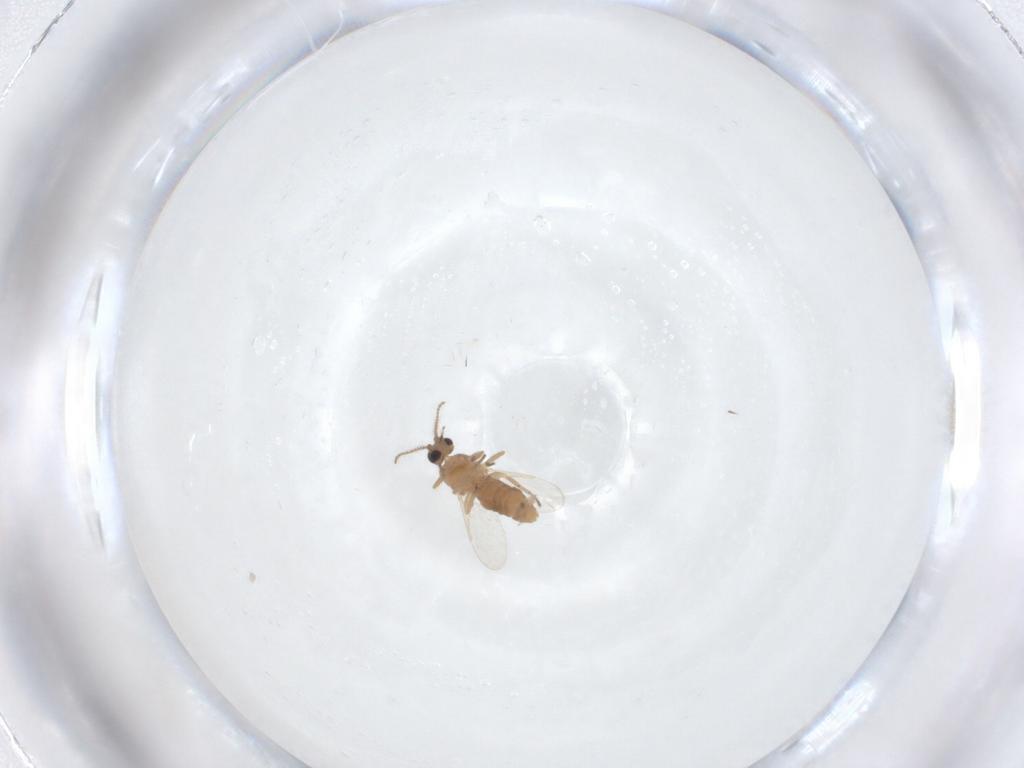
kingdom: Animalia
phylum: Arthropoda
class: Insecta
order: Diptera
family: Ceratopogonidae
